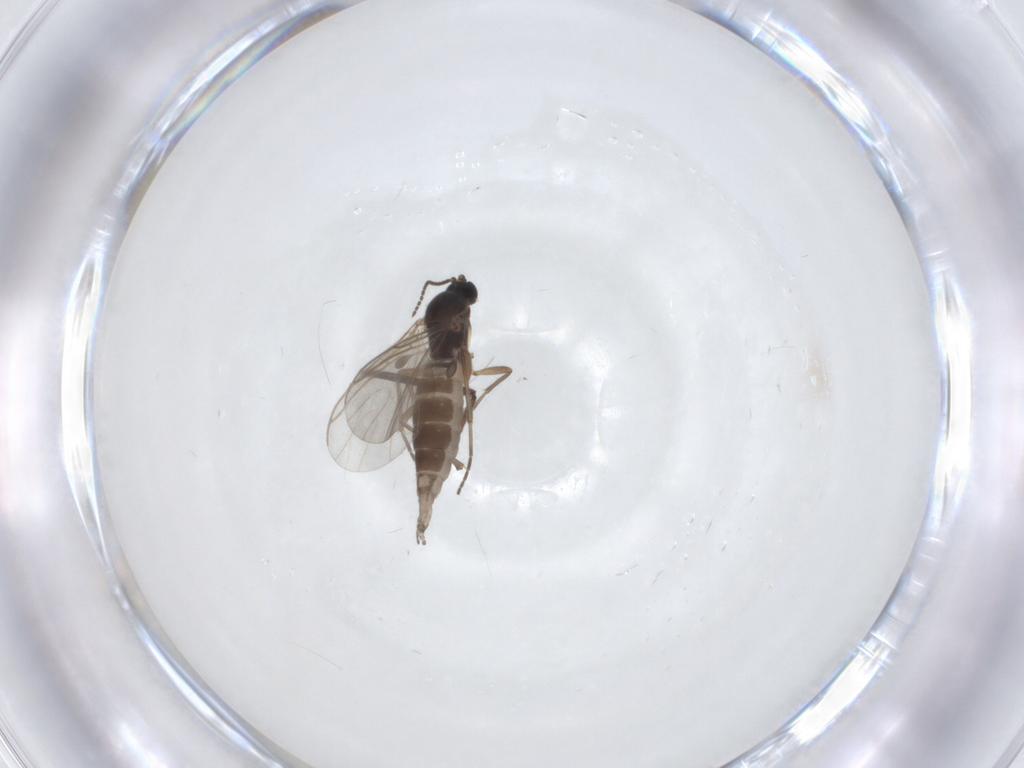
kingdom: Animalia
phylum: Arthropoda
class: Insecta
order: Diptera
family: Sciaridae
